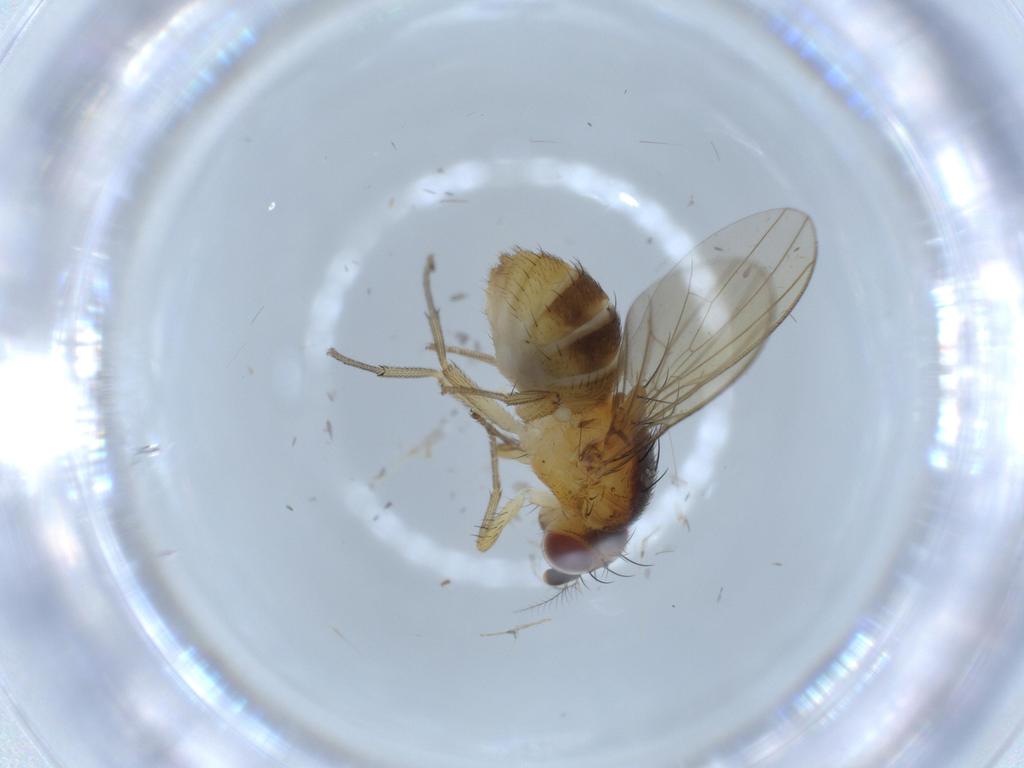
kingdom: Animalia
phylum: Arthropoda
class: Insecta
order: Diptera
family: Lauxaniidae
